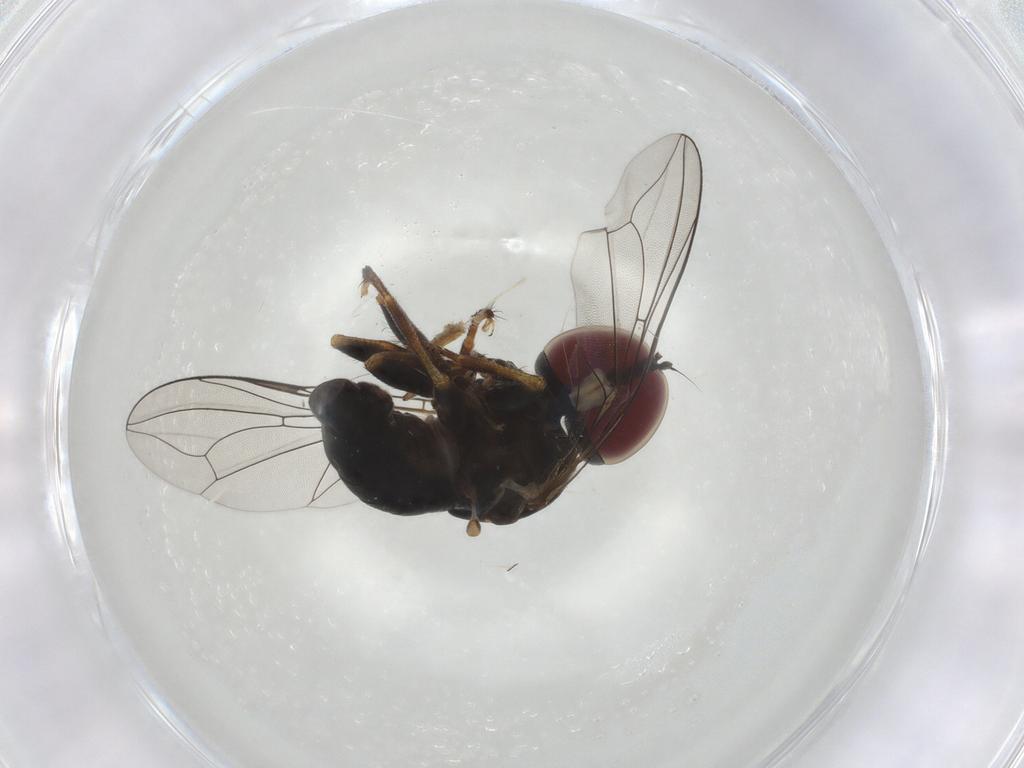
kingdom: Animalia
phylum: Arthropoda
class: Insecta
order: Diptera
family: Pipunculidae
